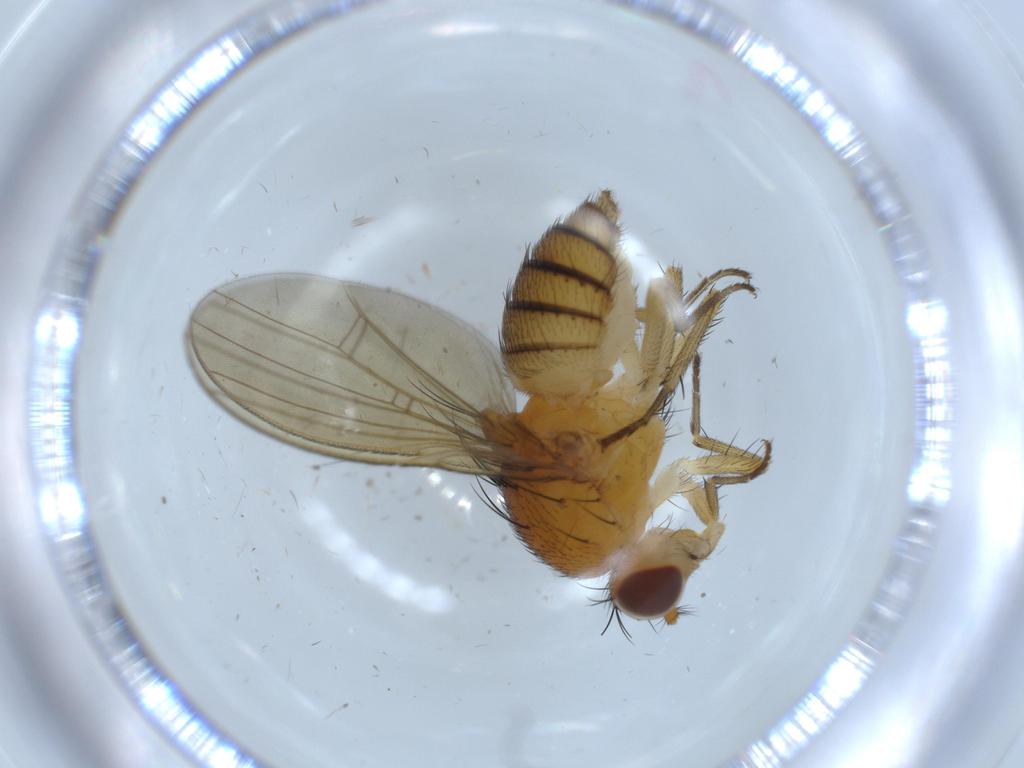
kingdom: Animalia
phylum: Arthropoda
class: Insecta
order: Diptera
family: Lauxaniidae
